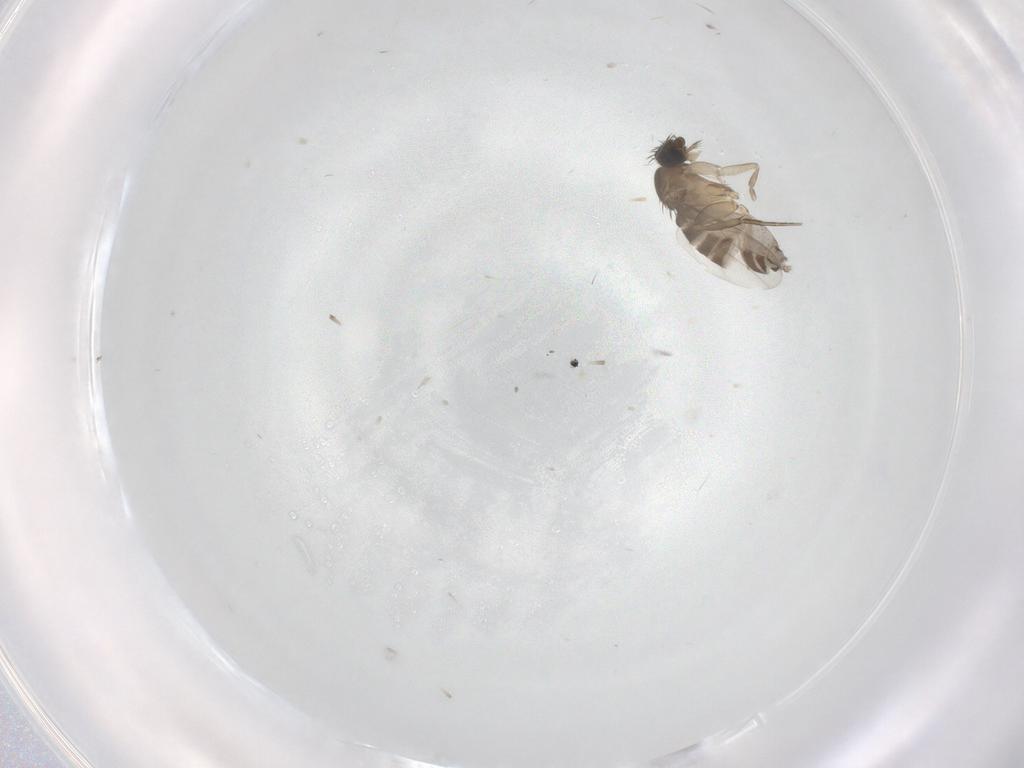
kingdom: Animalia
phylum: Arthropoda
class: Insecta
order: Diptera
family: Phoridae
